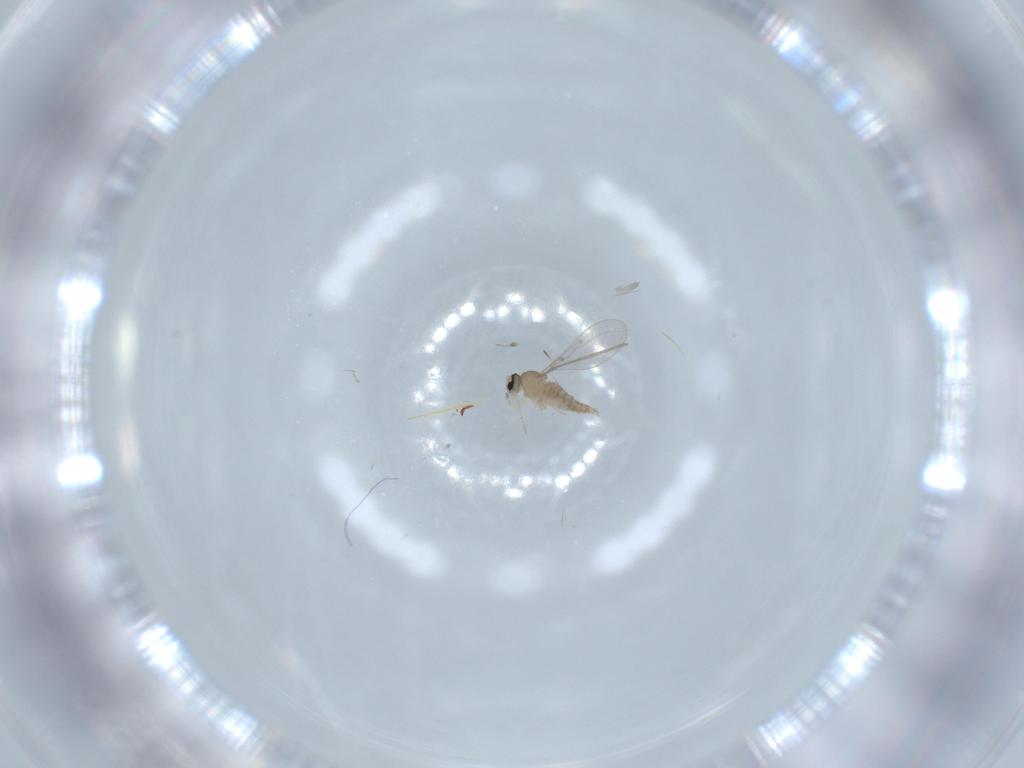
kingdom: Animalia
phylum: Arthropoda
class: Insecta
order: Diptera
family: Cecidomyiidae
